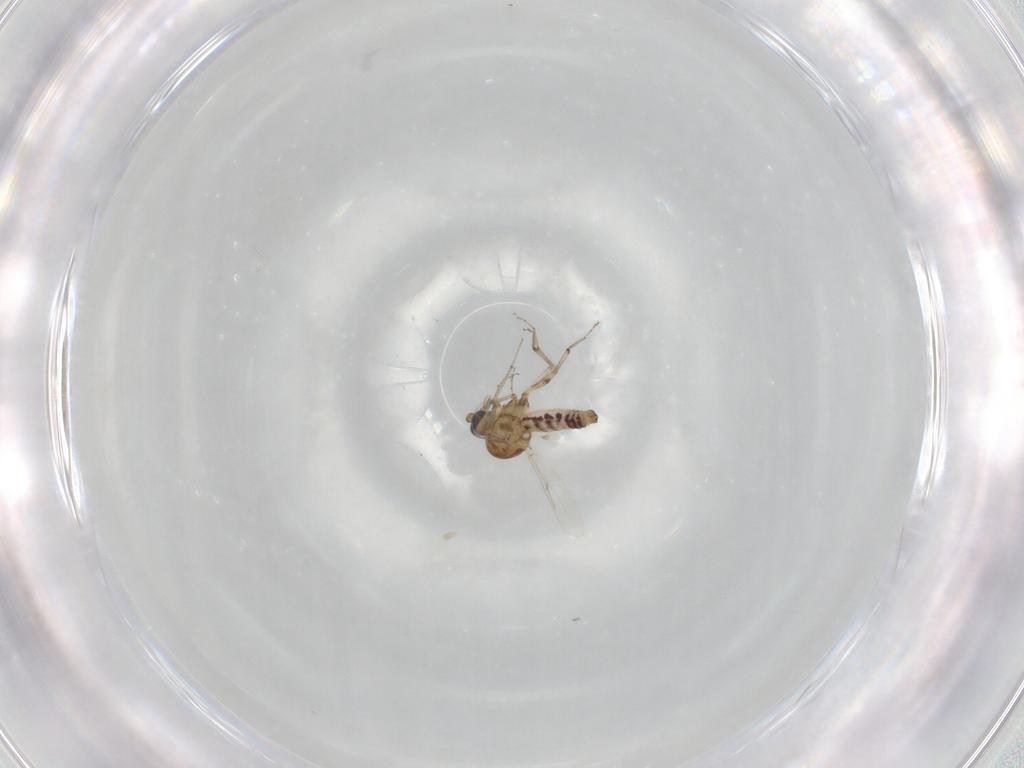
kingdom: Animalia
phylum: Arthropoda
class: Insecta
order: Diptera
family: Ceratopogonidae
